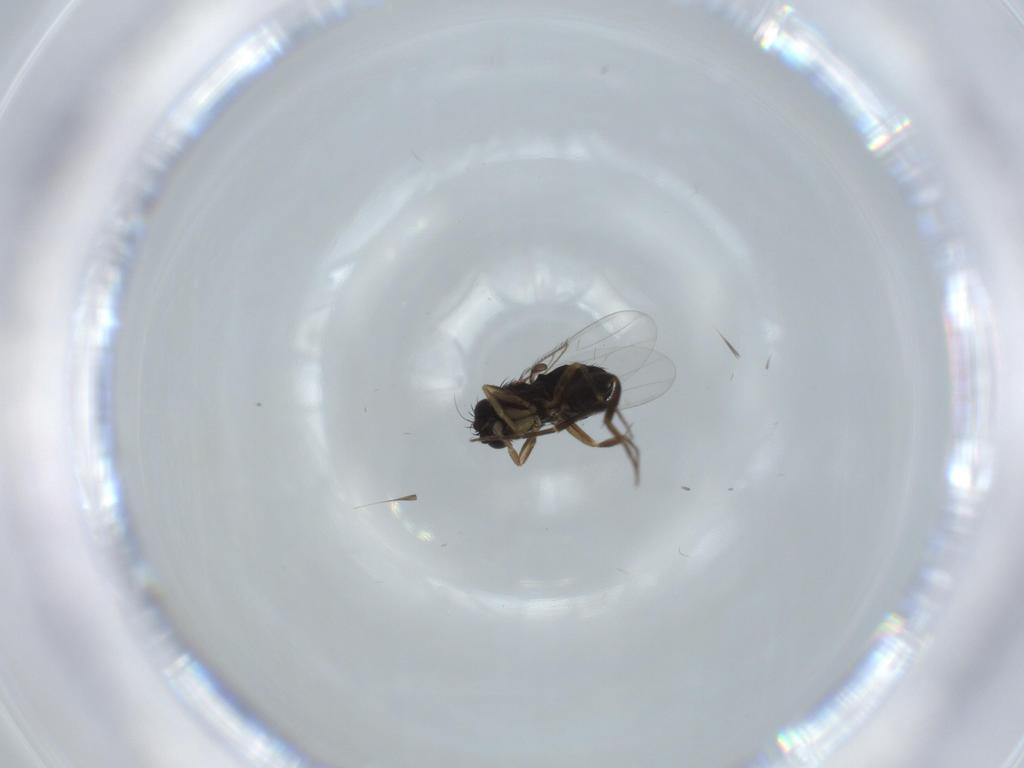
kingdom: Animalia
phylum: Arthropoda
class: Insecta
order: Diptera
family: Phoridae
